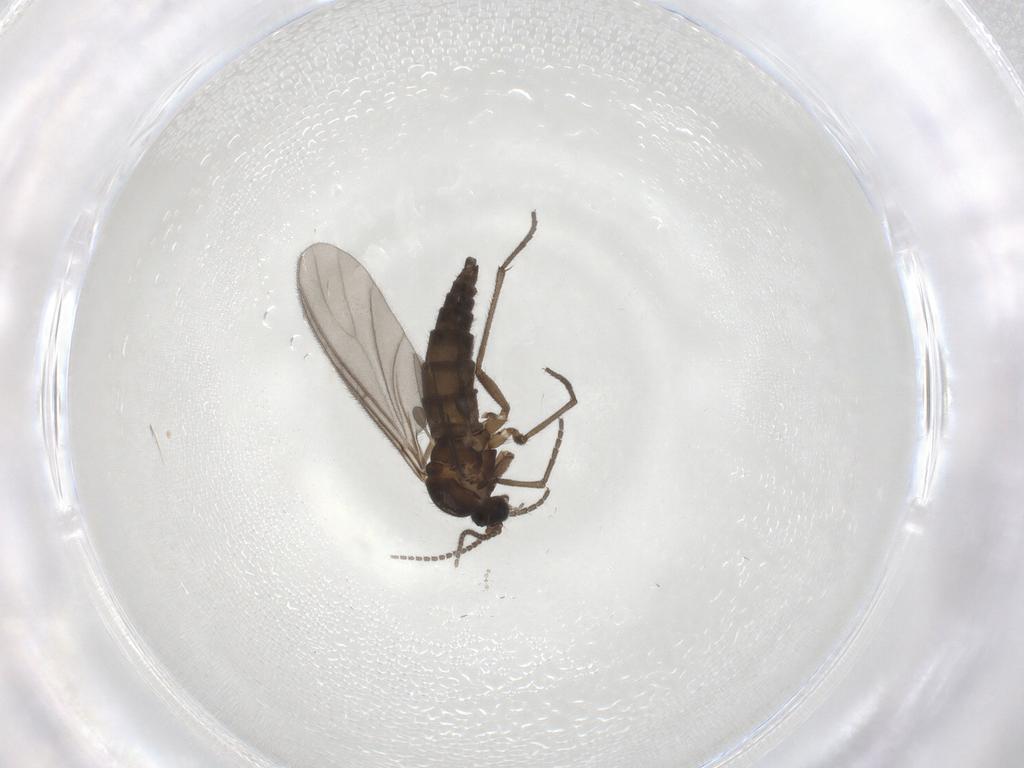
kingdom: Animalia
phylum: Arthropoda
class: Insecta
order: Diptera
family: Sciaridae
